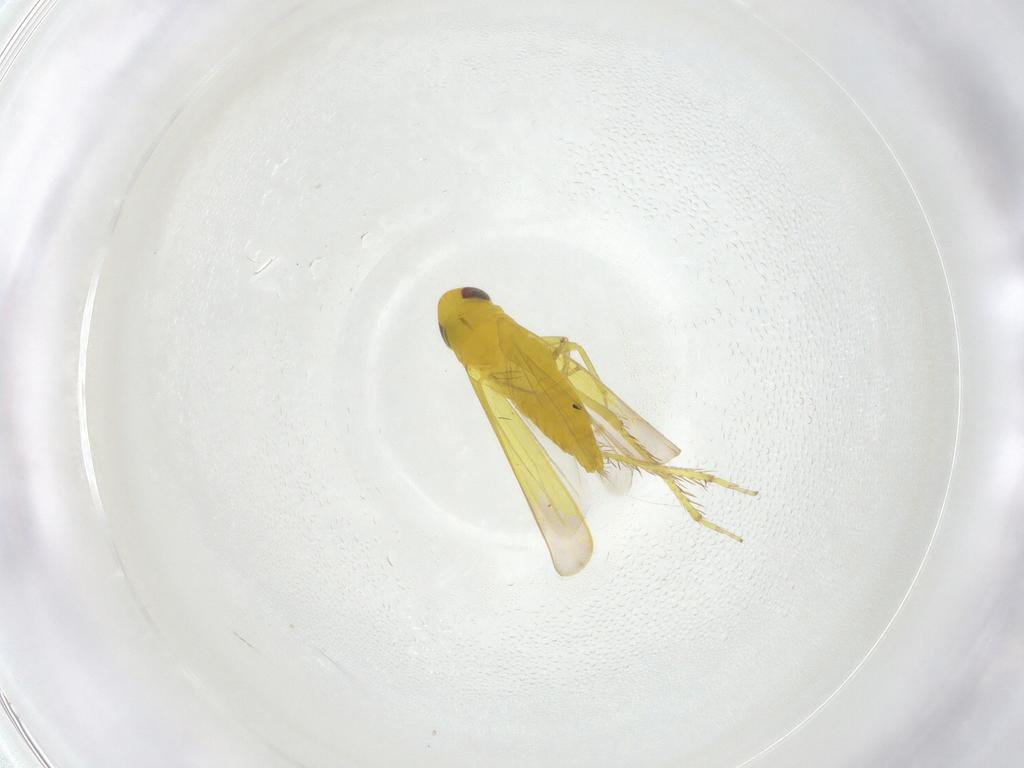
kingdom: Animalia
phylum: Arthropoda
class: Insecta
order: Hemiptera
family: Cicadellidae
